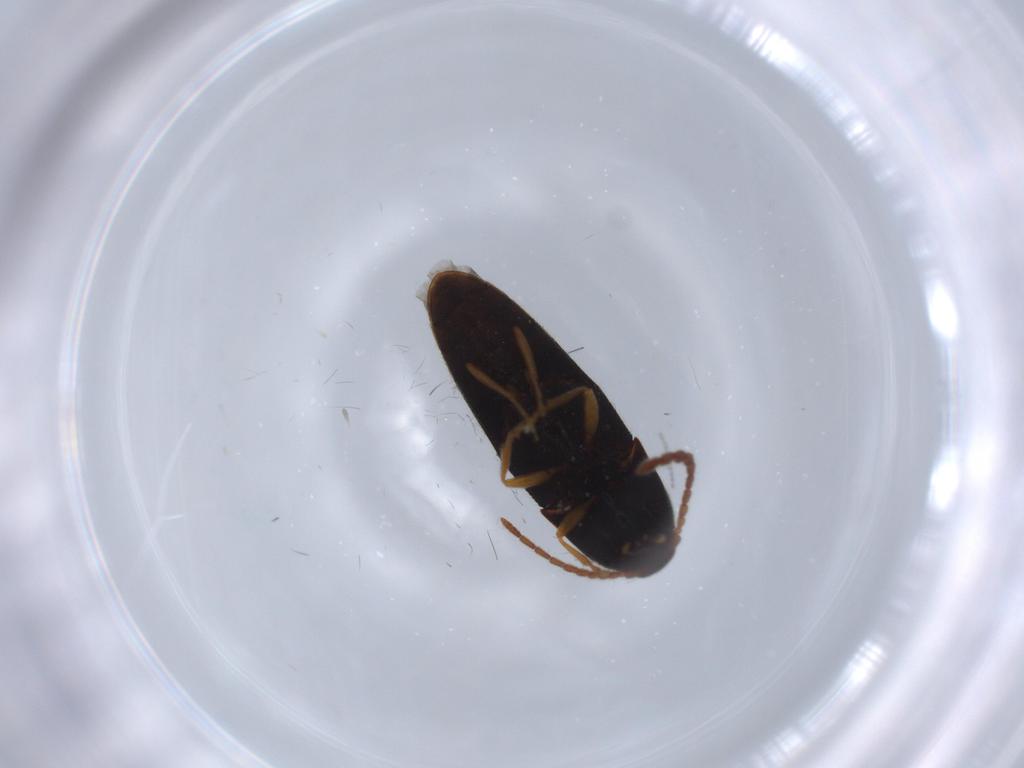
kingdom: Animalia
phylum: Arthropoda
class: Insecta
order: Coleoptera
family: Elateridae
